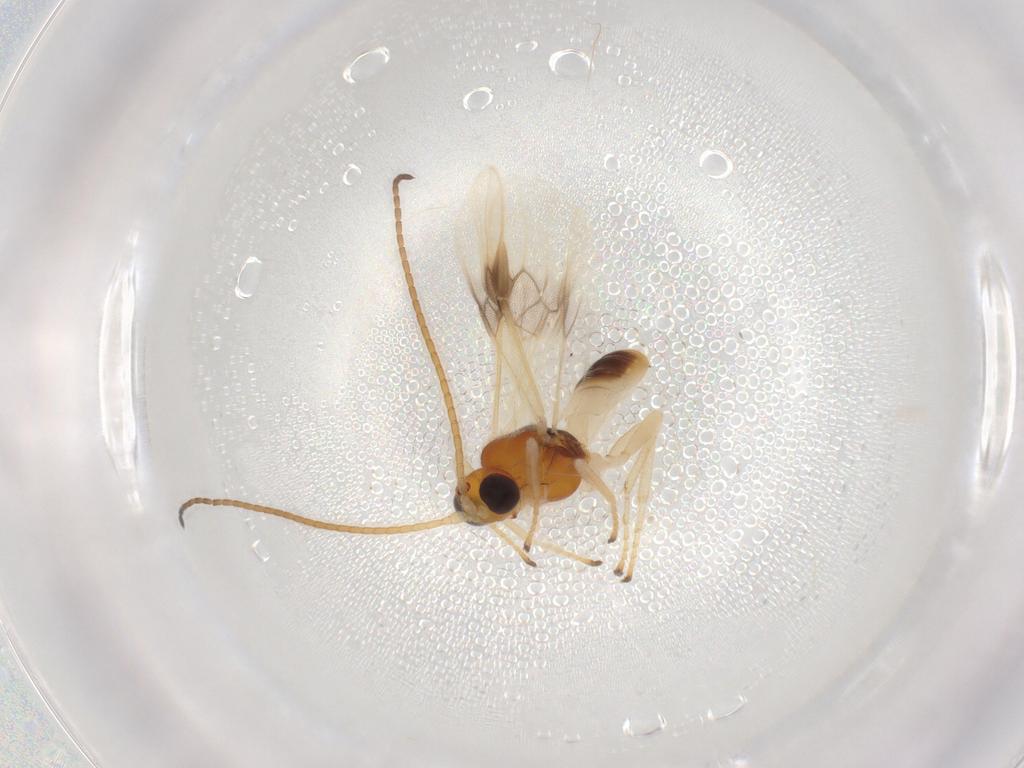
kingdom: Animalia
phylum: Arthropoda
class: Insecta
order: Hymenoptera
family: Braconidae
